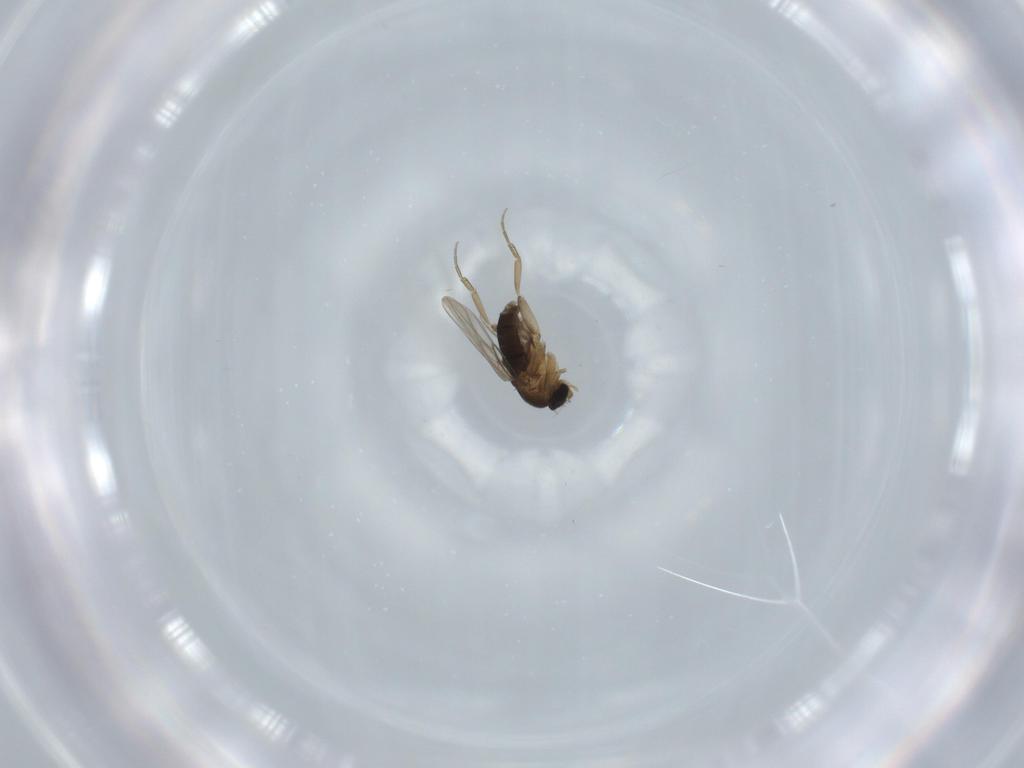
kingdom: Animalia
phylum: Arthropoda
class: Insecta
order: Diptera
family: Phoridae
